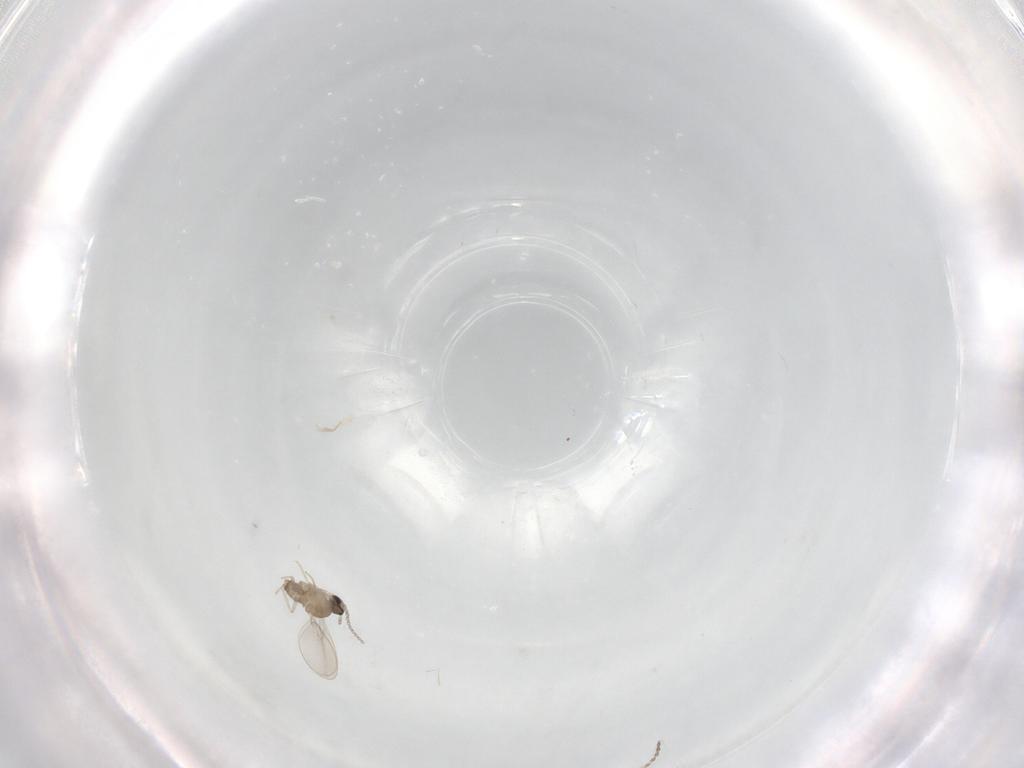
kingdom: Animalia
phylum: Arthropoda
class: Insecta
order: Diptera
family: Cecidomyiidae
